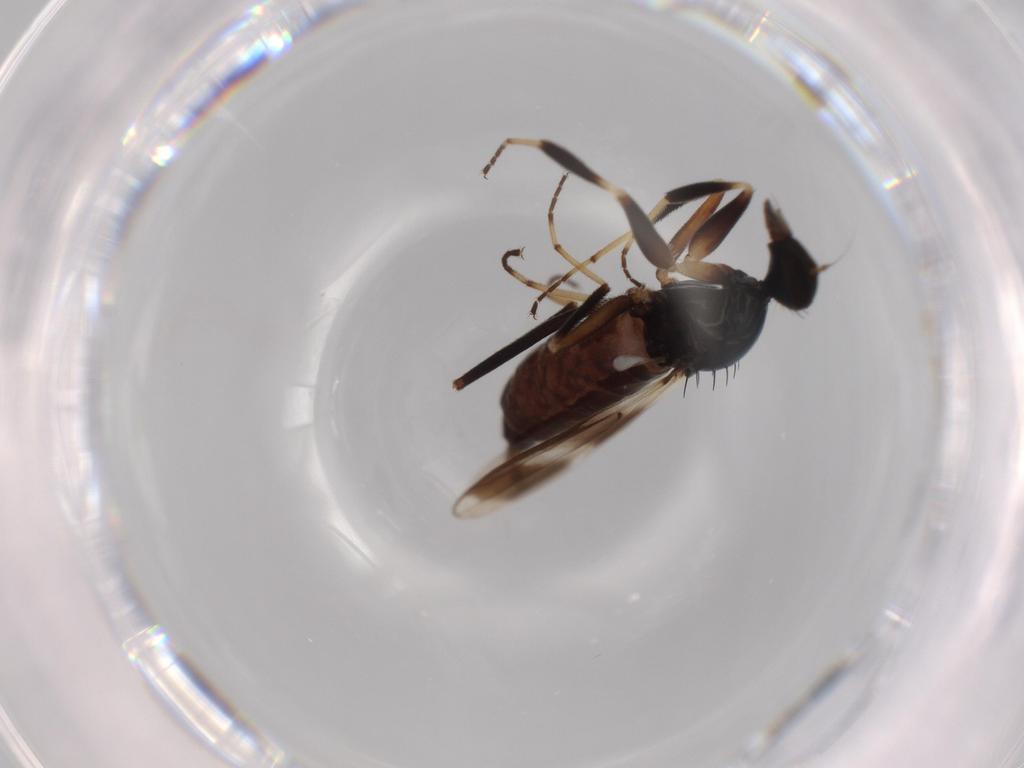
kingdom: Animalia
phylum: Arthropoda
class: Insecta
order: Diptera
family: Hybotidae
